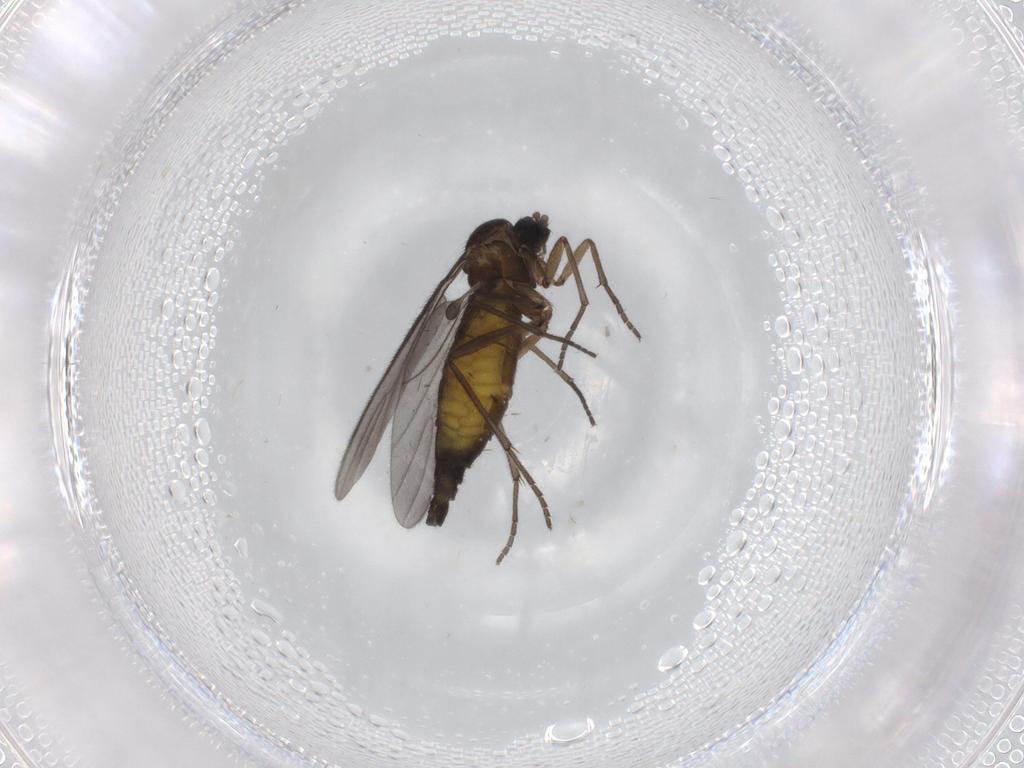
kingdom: Animalia
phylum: Arthropoda
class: Insecta
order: Diptera
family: Sciaridae
